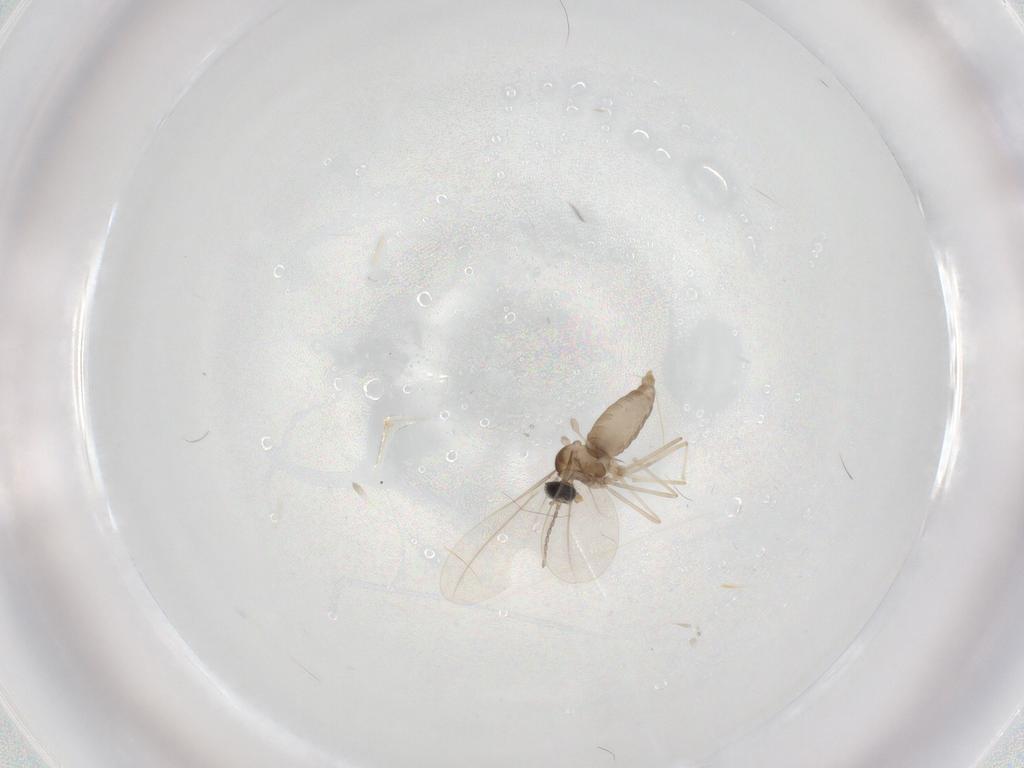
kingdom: Animalia
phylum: Arthropoda
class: Insecta
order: Diptera
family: Cecidomyiidae
